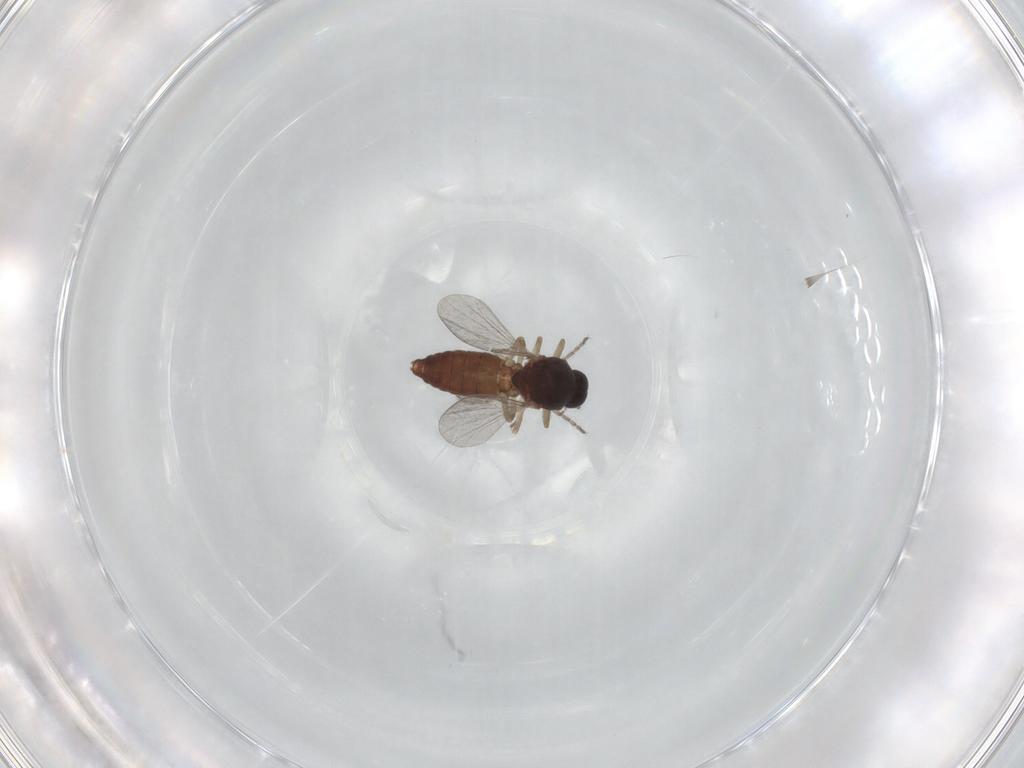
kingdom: Animalia
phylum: Arthropoda
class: Insecta
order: Diptera
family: Ceratopogonidae
